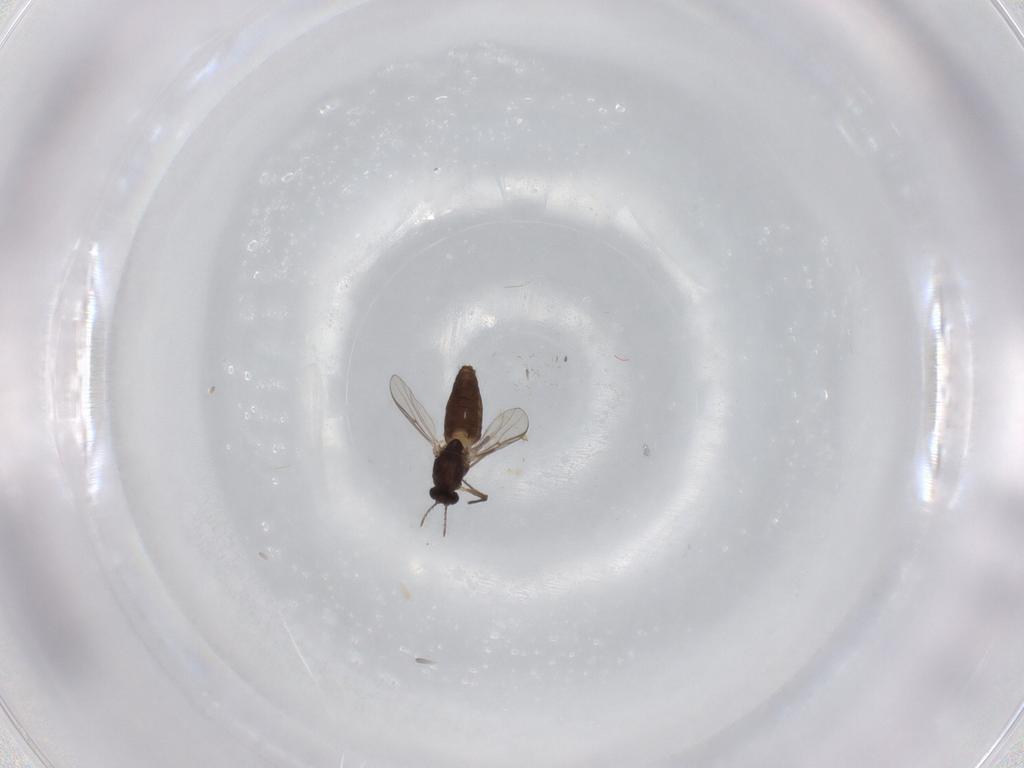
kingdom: Animalia
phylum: Arthropoda
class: Insecta
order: Diptera
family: Chironomidae
